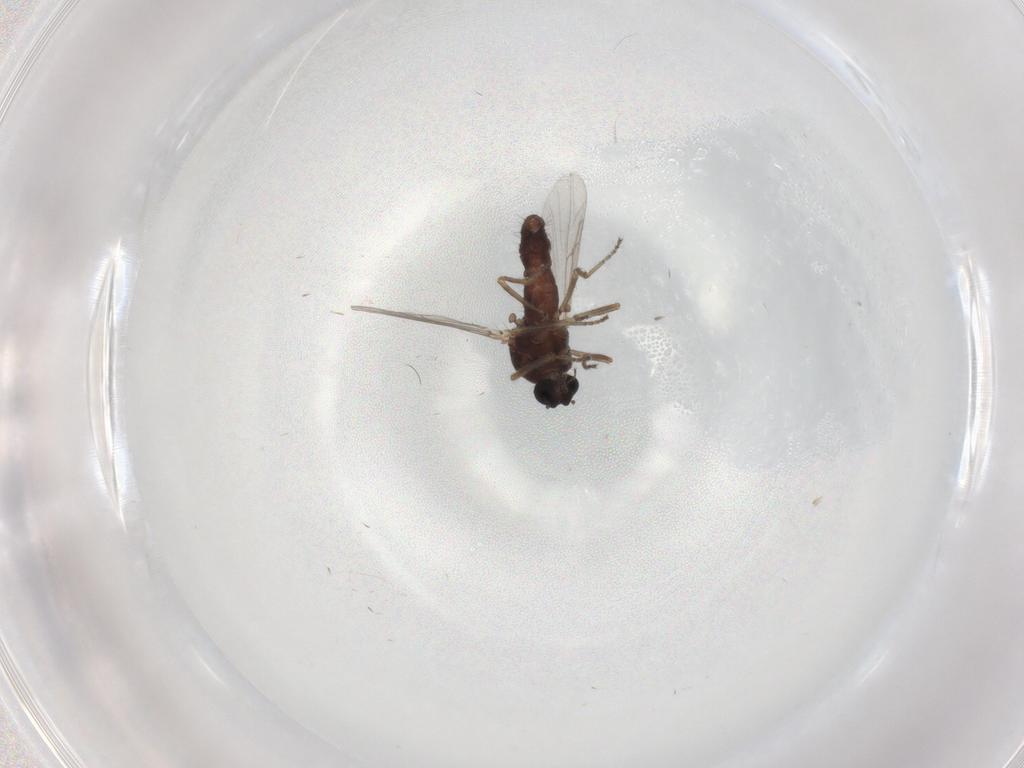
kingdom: Animalia
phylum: Arthropoda
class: Insecta
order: Diptera
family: Ceratopogonidae
